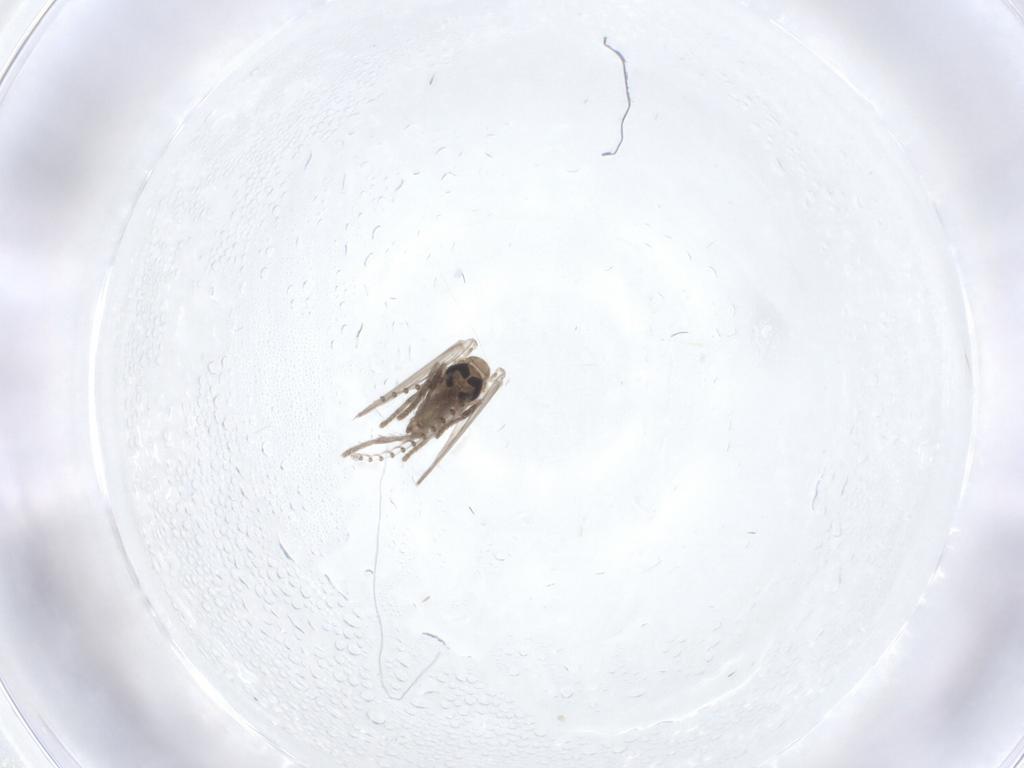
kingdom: Animalia
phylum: Arthropoda
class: Insecta
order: Diptera
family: Psychodidae
